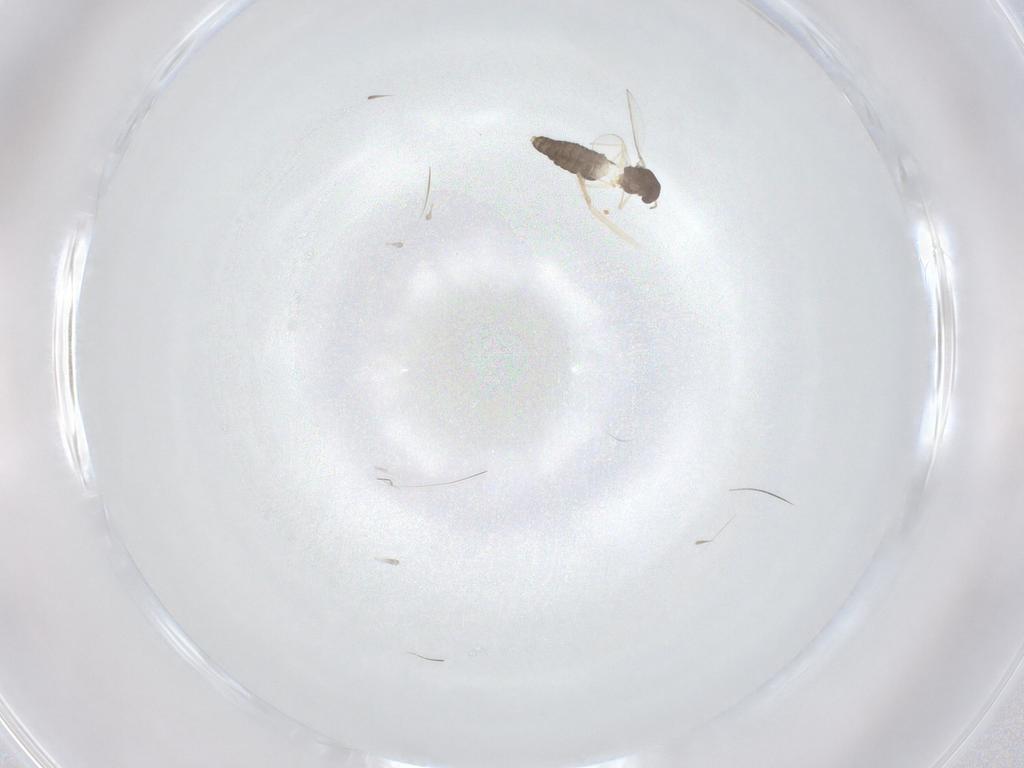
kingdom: Animalia
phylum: Arthropoda
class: Insecta
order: Diptera
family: Chironomidae
